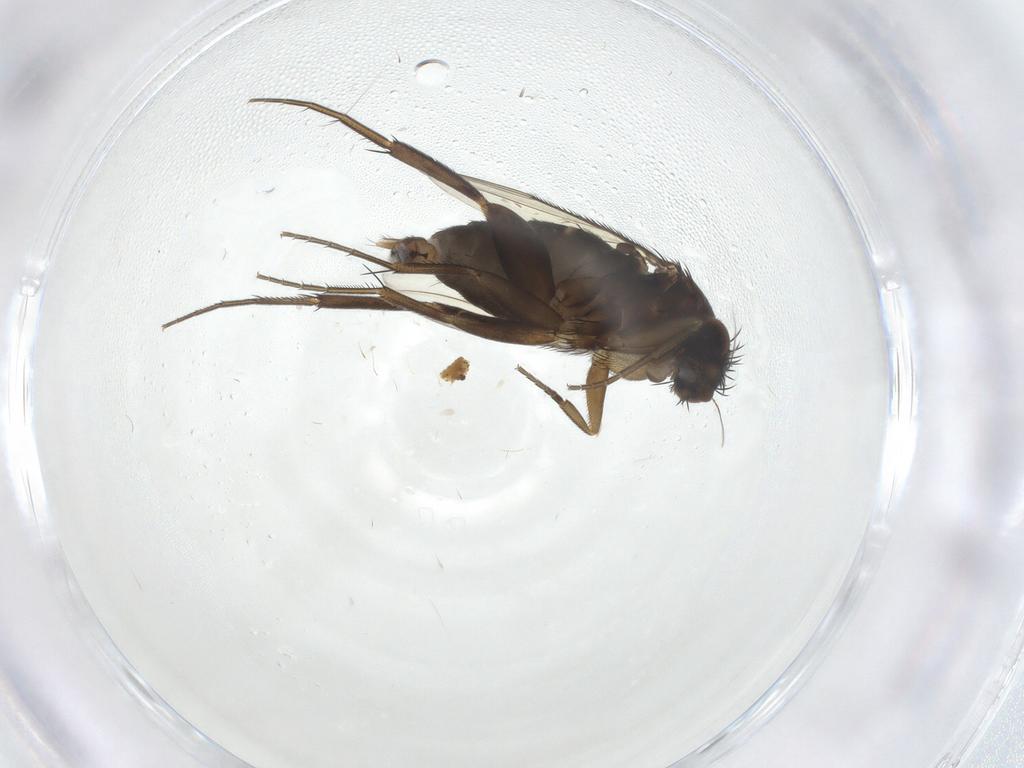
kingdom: Animalia
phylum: Arthropoda
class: Insecta
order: Diptera
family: Phoridae
